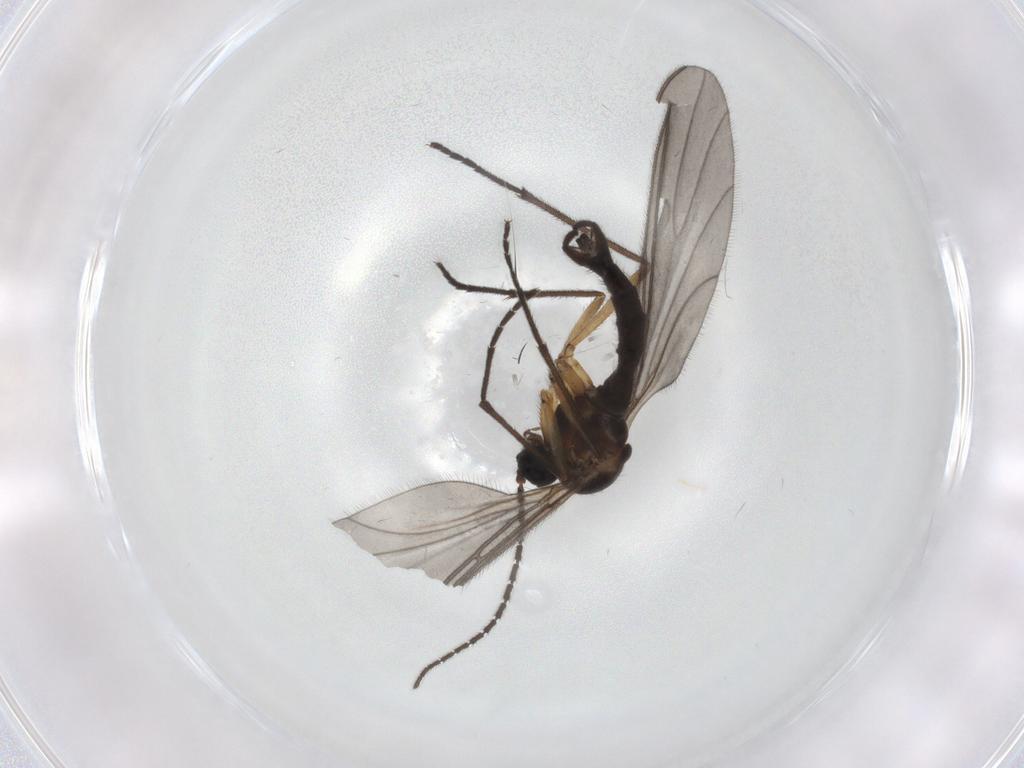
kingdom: Animalia
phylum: Arthropoda
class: Insecta
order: Diptera
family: Sciaridae
